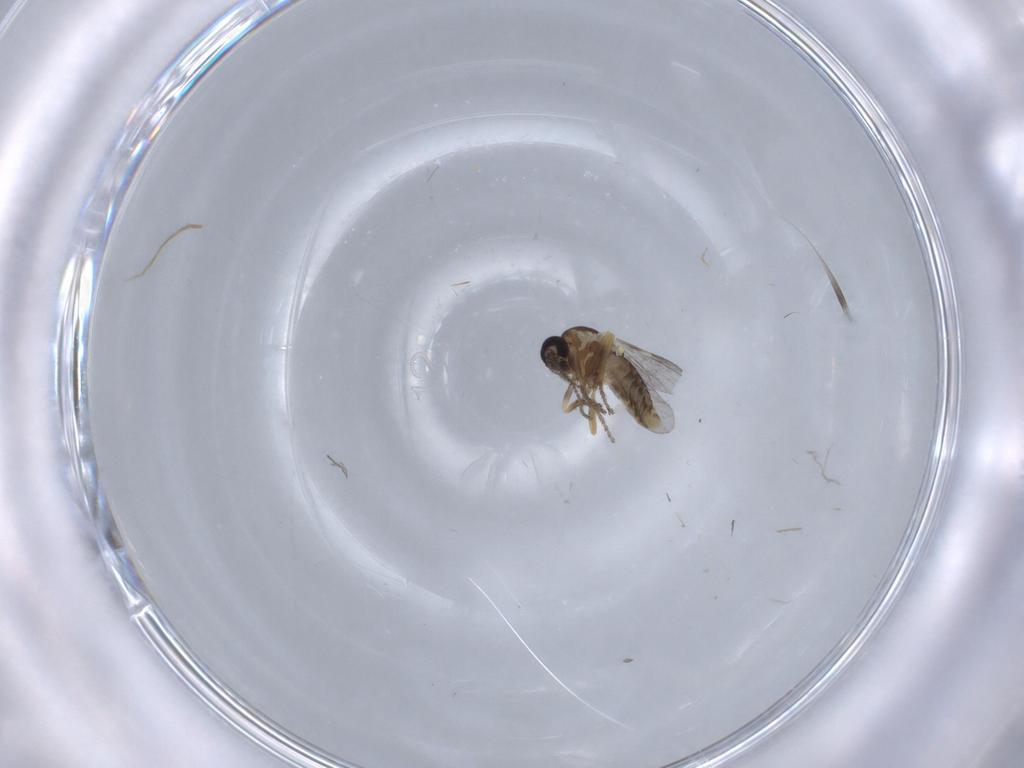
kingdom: Animalia
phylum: Arthropoda
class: Insecta
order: Diptera
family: Ceratopogonidae
